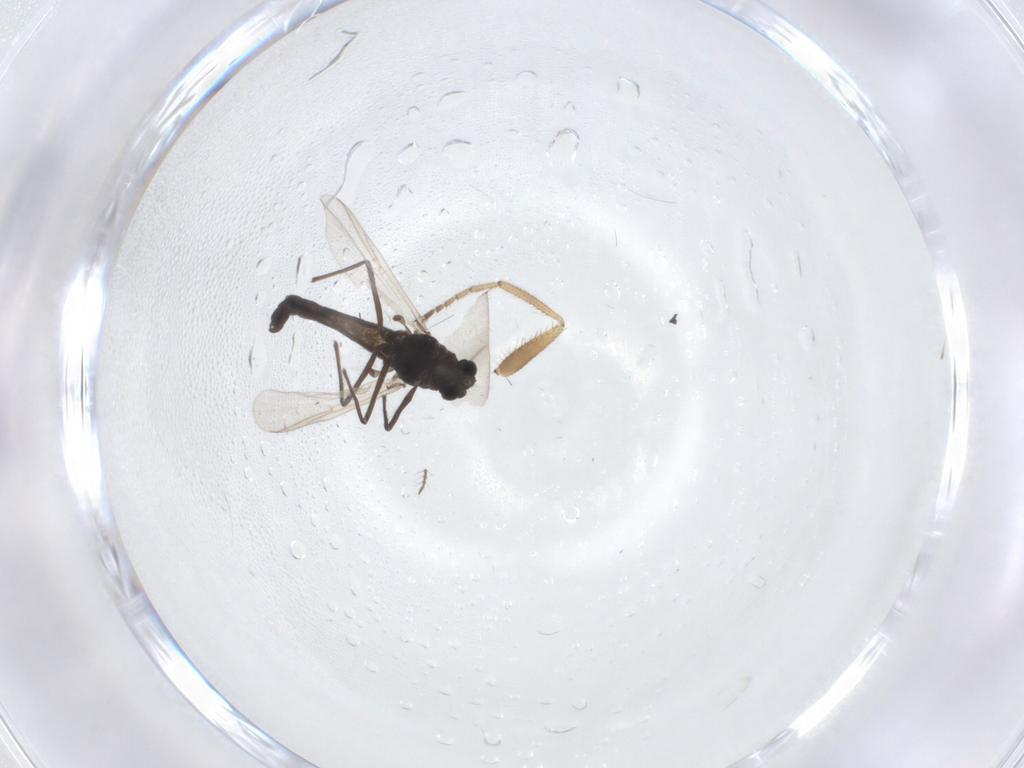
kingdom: Animalia
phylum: Arthropoda
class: Insecta
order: Diptera
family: Hybotidae
